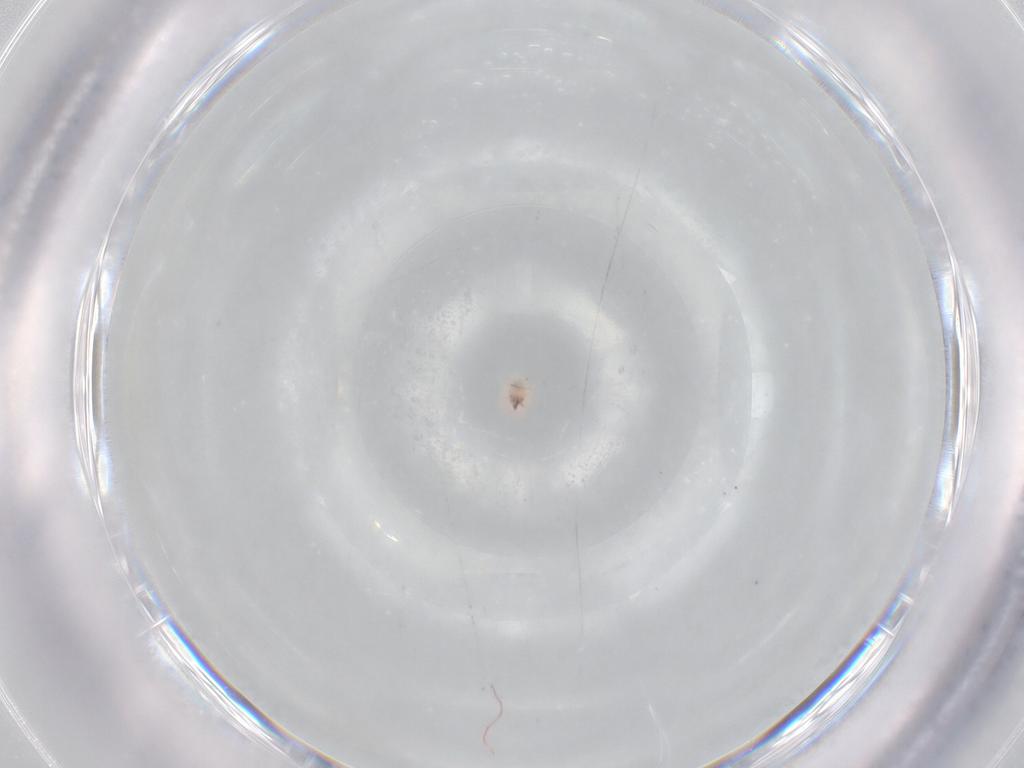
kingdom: Animalia
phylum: Arthropoda
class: Arachnida
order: Trombidiformes
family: Bdellidae
